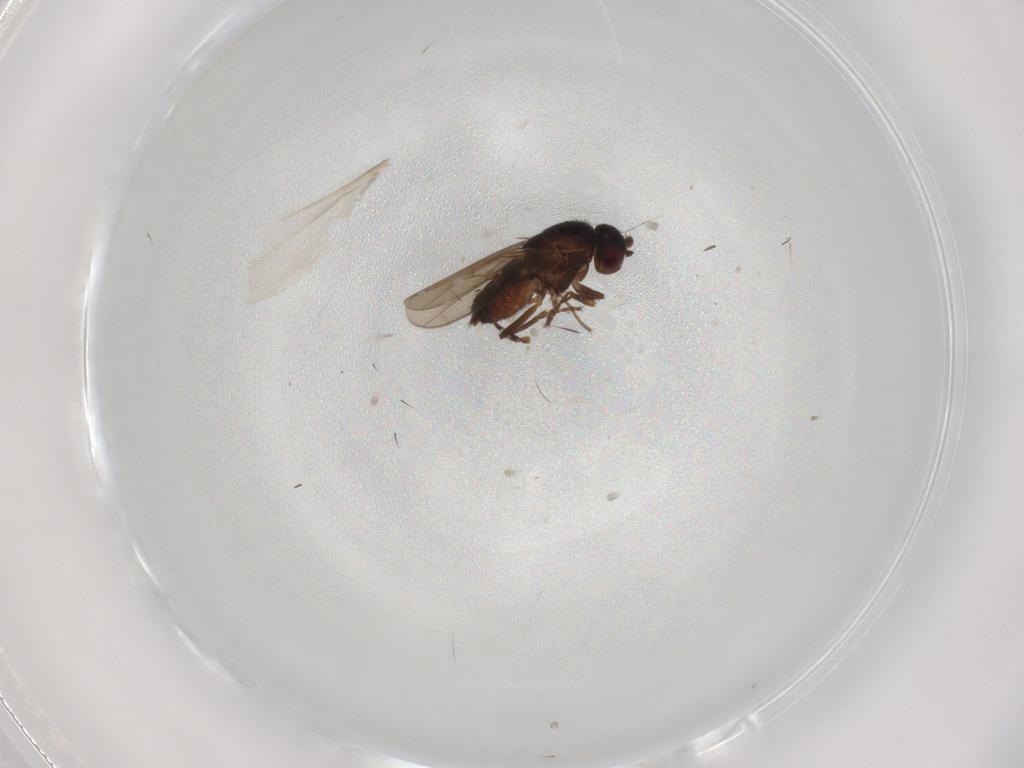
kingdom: Animalia
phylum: Arthropoda
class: Insecta
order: Diptera
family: Sphaeroceridae
